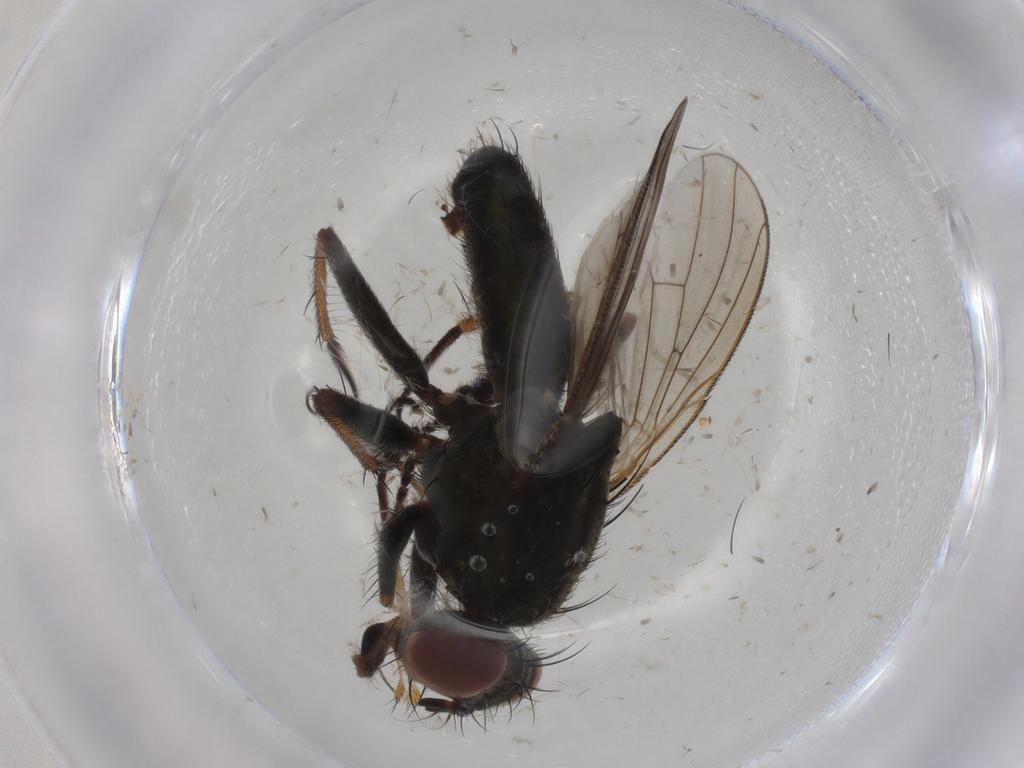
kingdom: Animalia
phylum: Arthropoda
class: Insecta
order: Diptera
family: Muscidae
